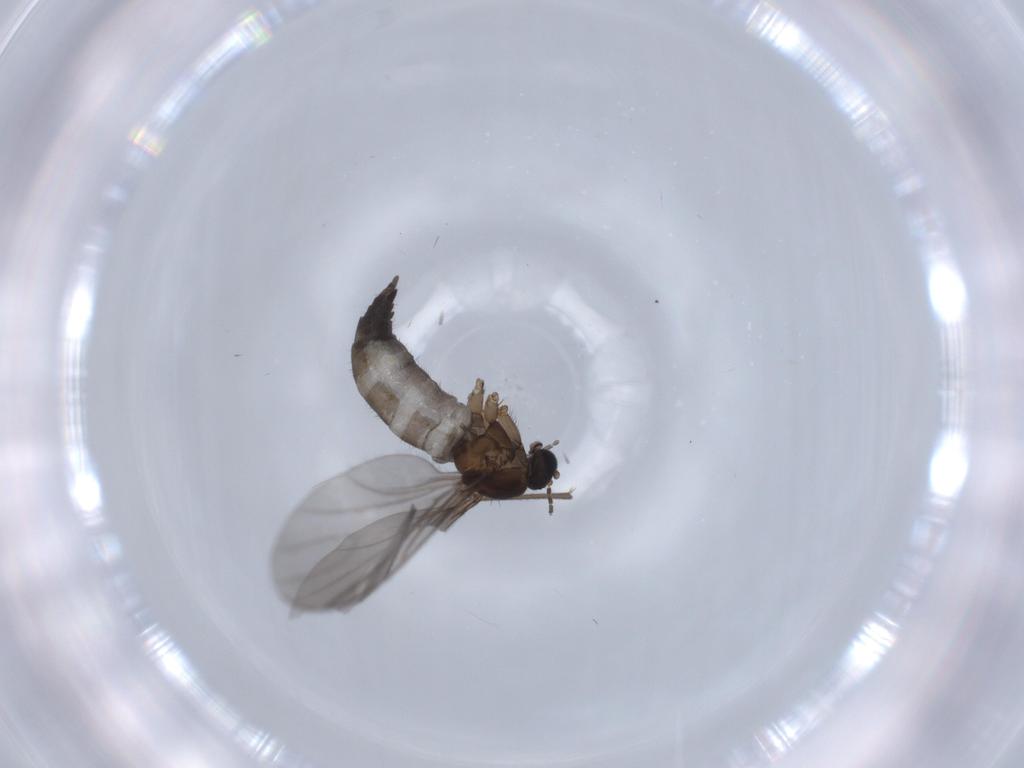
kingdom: Animalia
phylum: Arthropoda
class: Insecta
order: Diptera
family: Sciaridae
